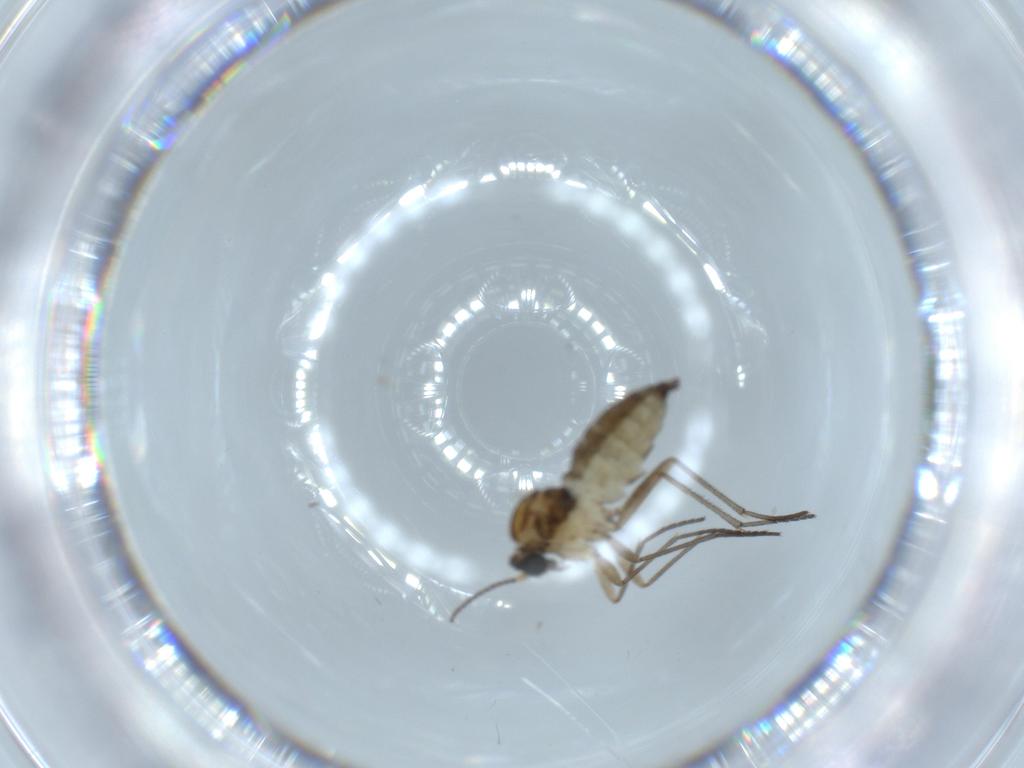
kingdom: Animalia
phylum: Arthropoda
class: Insecta
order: Diptera
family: Sciaridae
